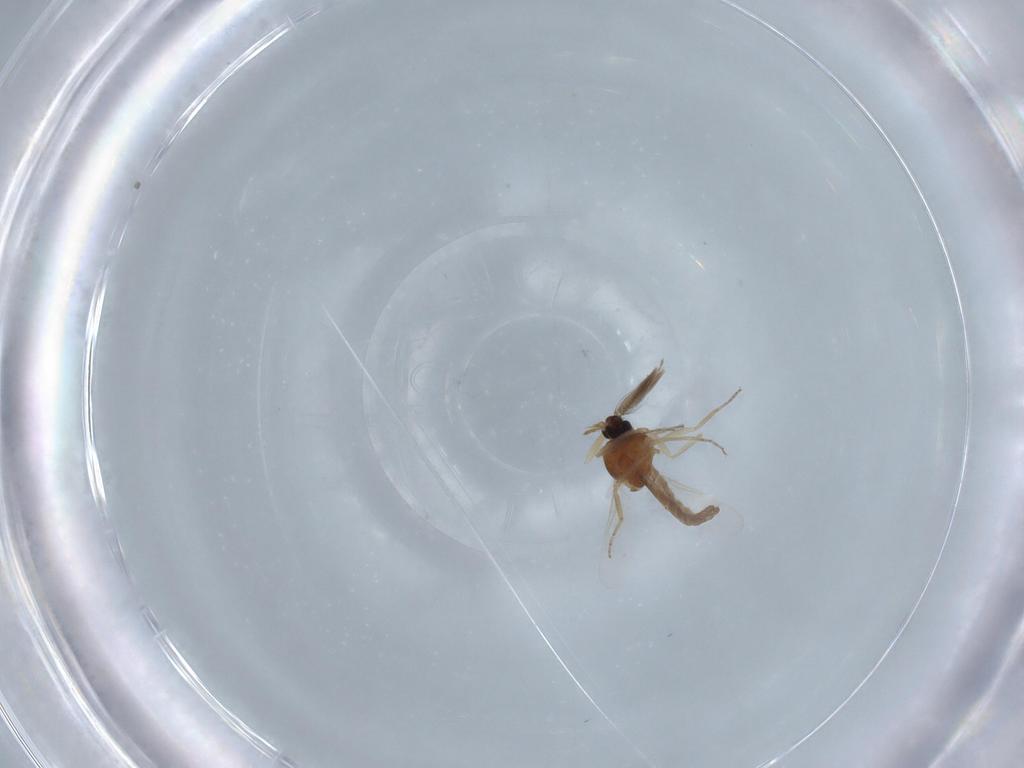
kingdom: Animalia
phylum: Arthropoda
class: Insecta
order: Diptera
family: Ceratopogonidae
